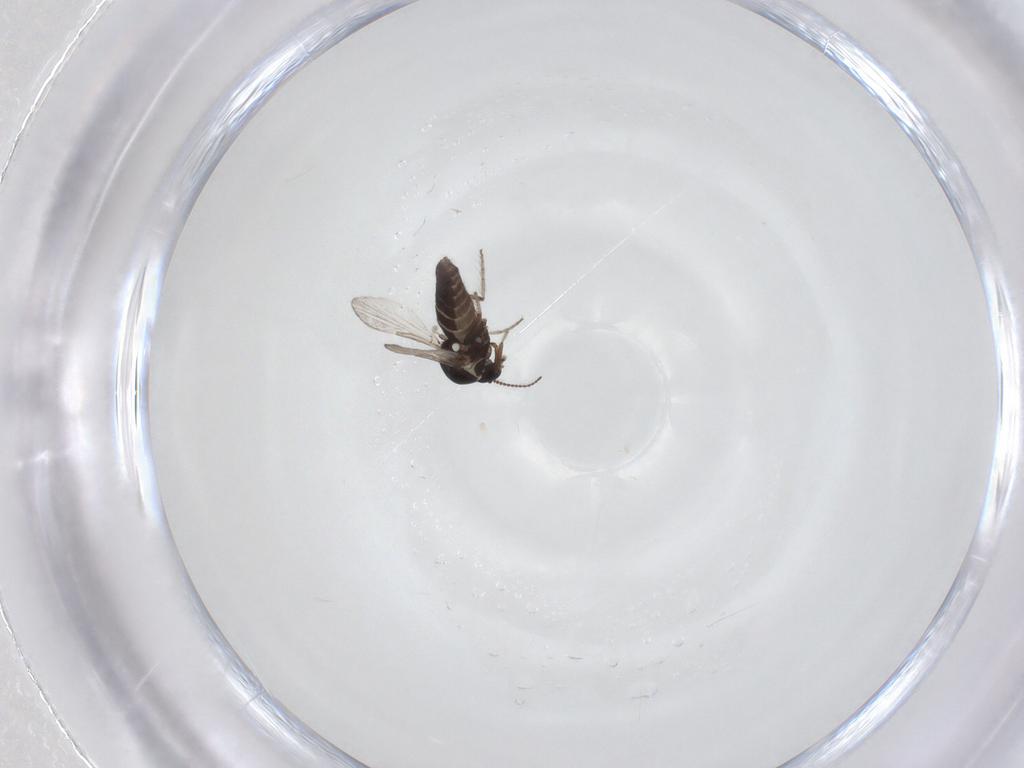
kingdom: Animalia
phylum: Arthropoda
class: Insecta
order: Diptera
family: Ceratopogonidae
